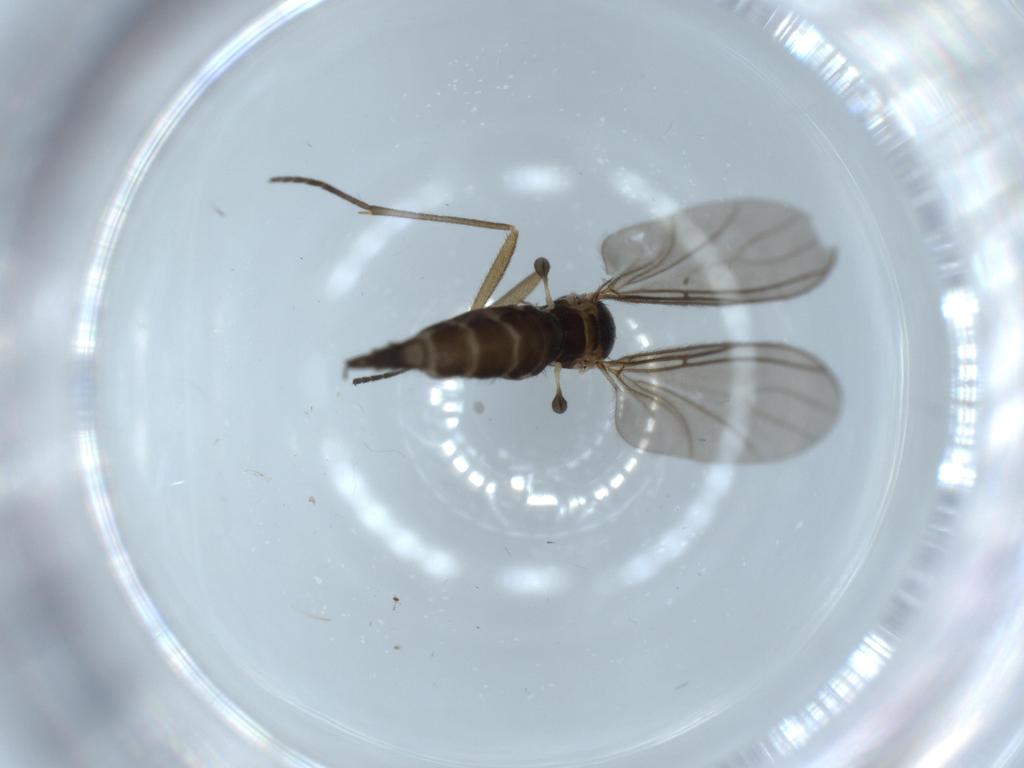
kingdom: Animalia
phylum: Arthropoda
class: Insecta
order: Diptera
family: Sciaridae
